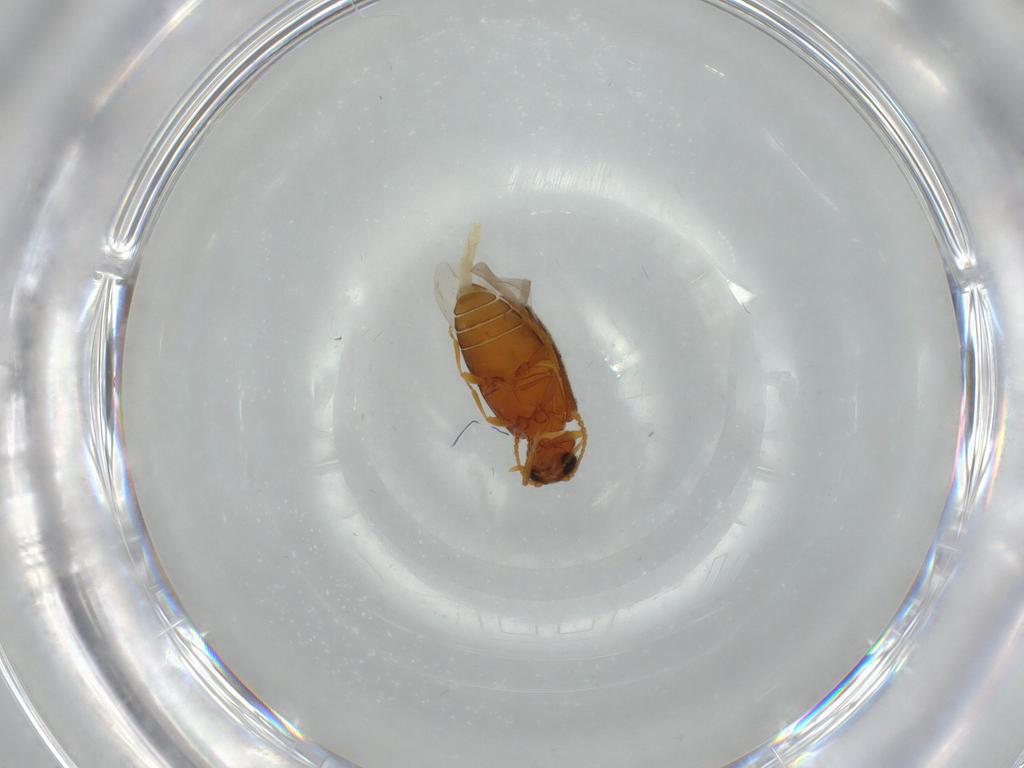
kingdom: Animalia
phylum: Arthropoda
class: Insecta
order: Coleoptera
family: Aderidae
